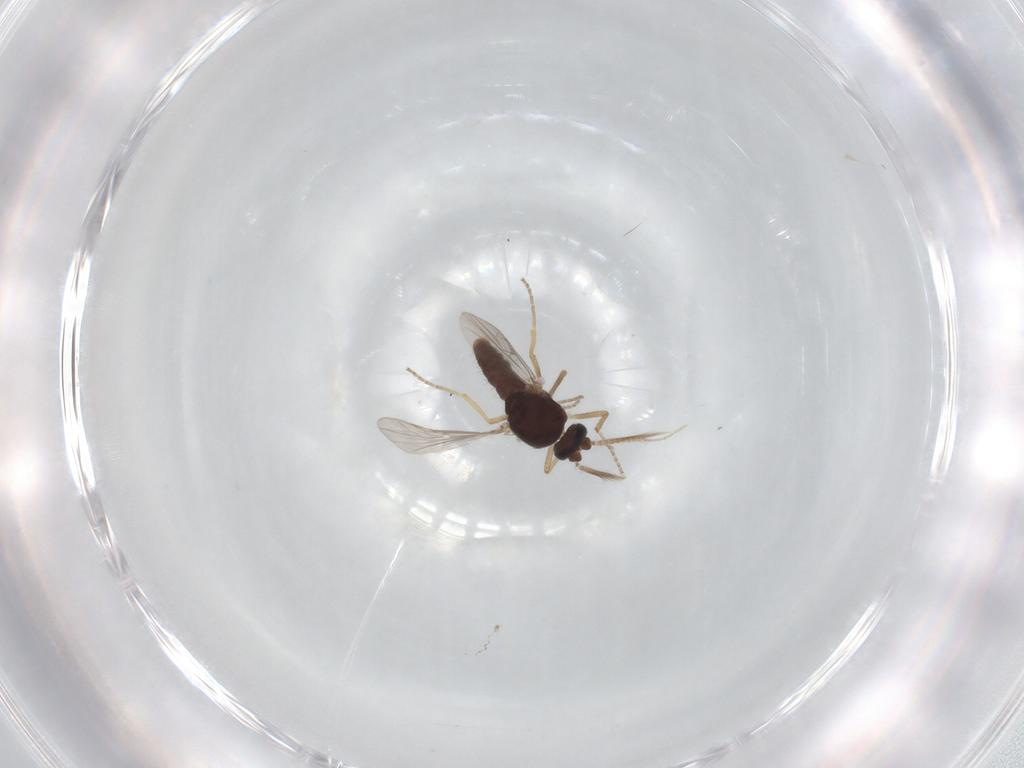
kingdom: Animalia
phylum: Arthropoda
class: Insecta
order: Diptera
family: Ceratopogonidae
